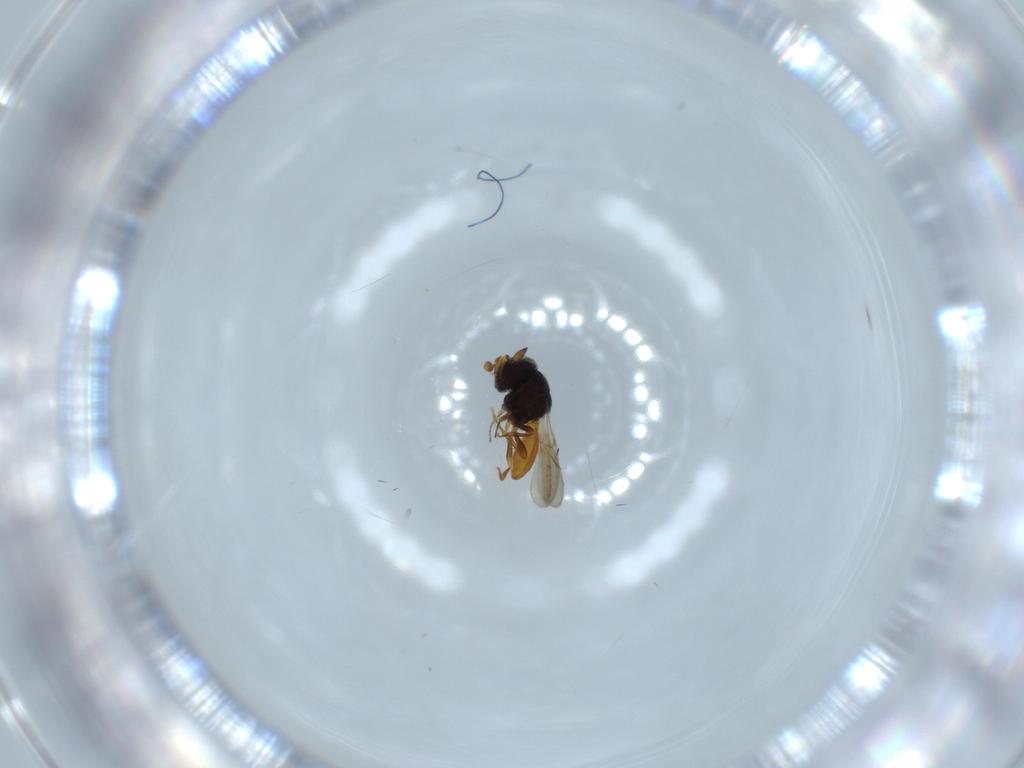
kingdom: Animalia
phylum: Arthropoda
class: Insecta
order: Hymenoptera
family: Scelionidae
